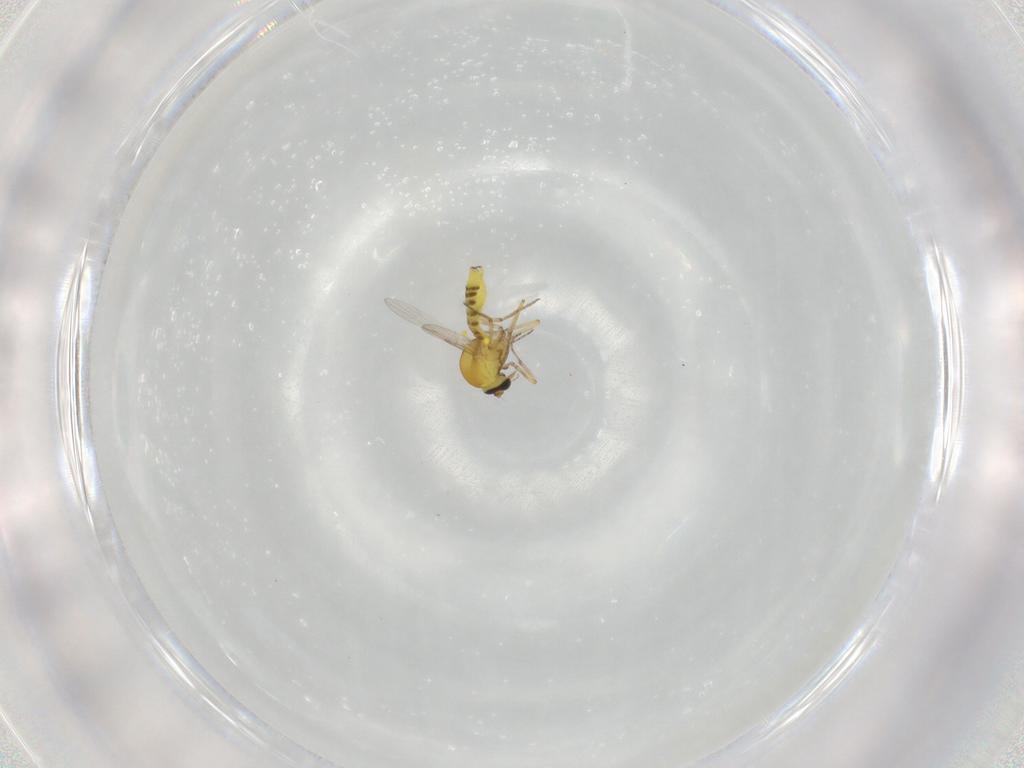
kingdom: Animalia
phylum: Arthropoda
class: Insecta
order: Diptera
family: Ceratopogonidae
